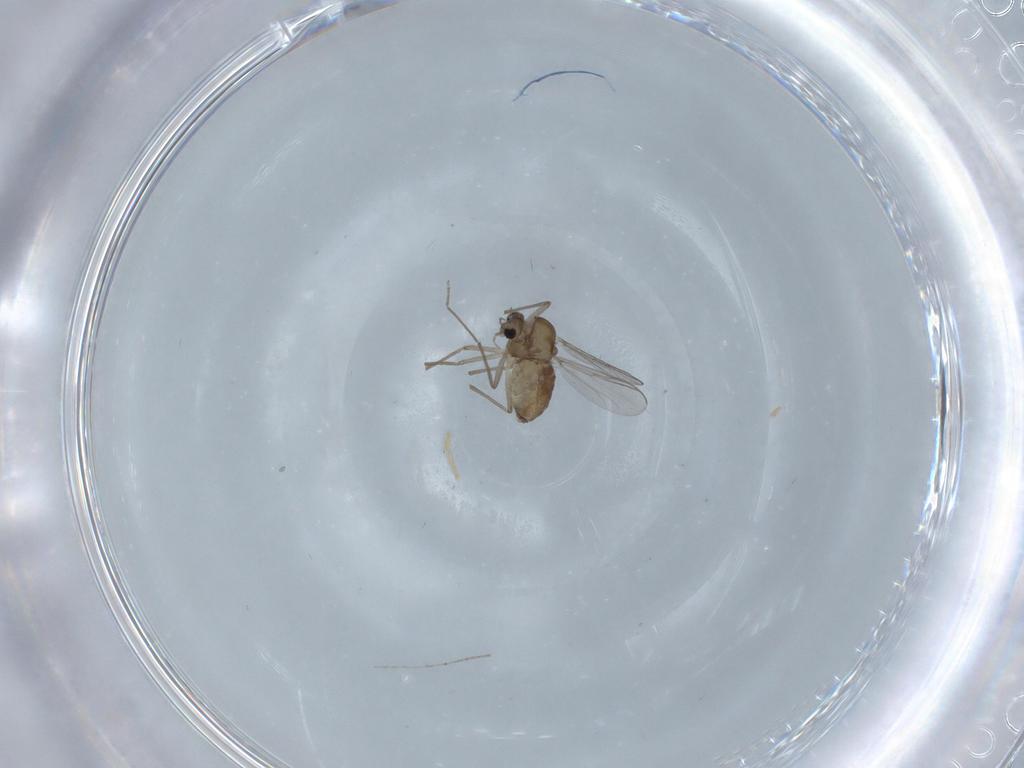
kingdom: Animalia
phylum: Arthropoda
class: Insecta
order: Diptera
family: Chironomidae
